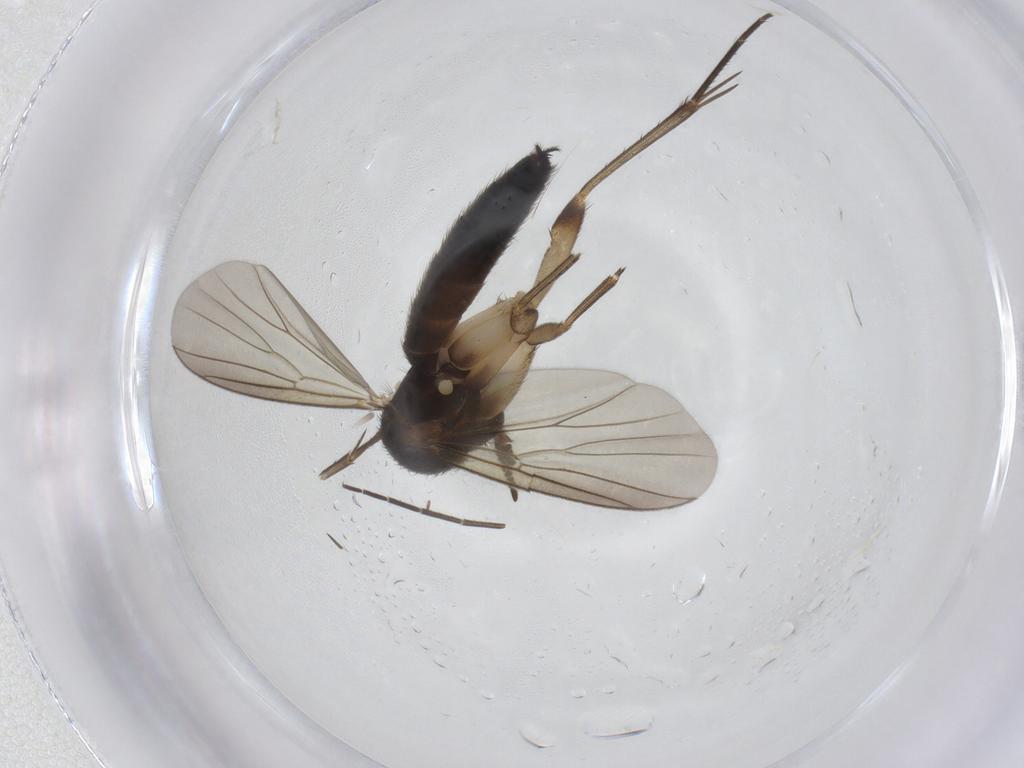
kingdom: Animalia
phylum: Arthropoda
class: Insecta
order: Diptera
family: Mycetophilidae
